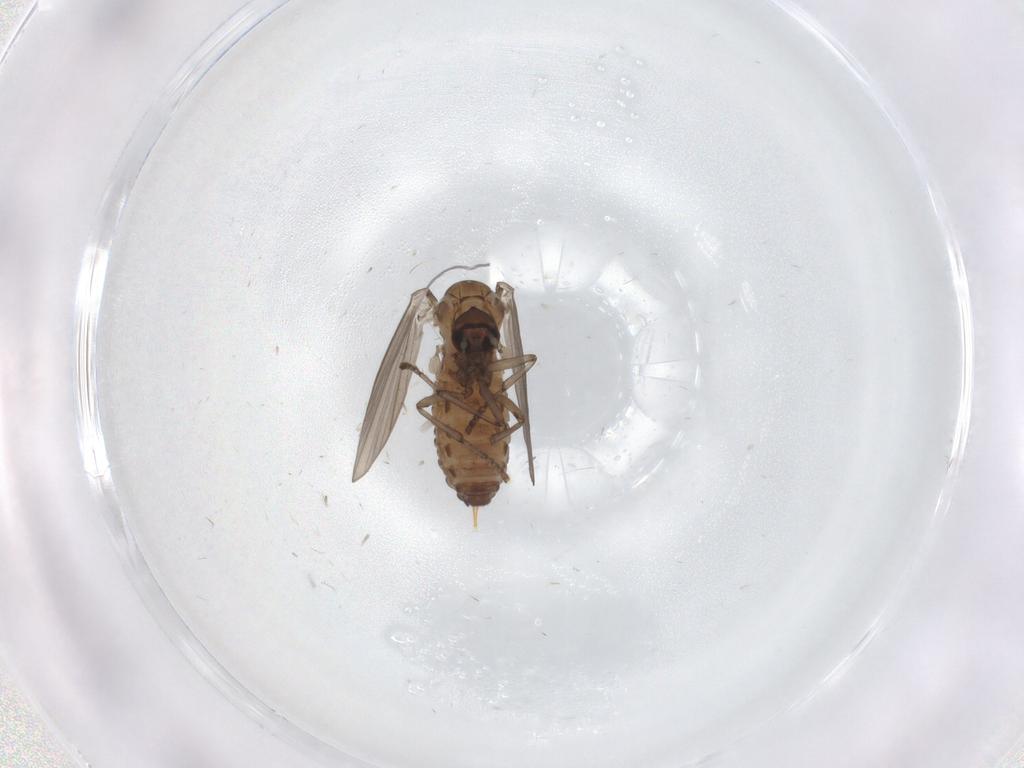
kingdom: Animalia
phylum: Arthropoda
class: Insecta
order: Diptera
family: Psychodidae
